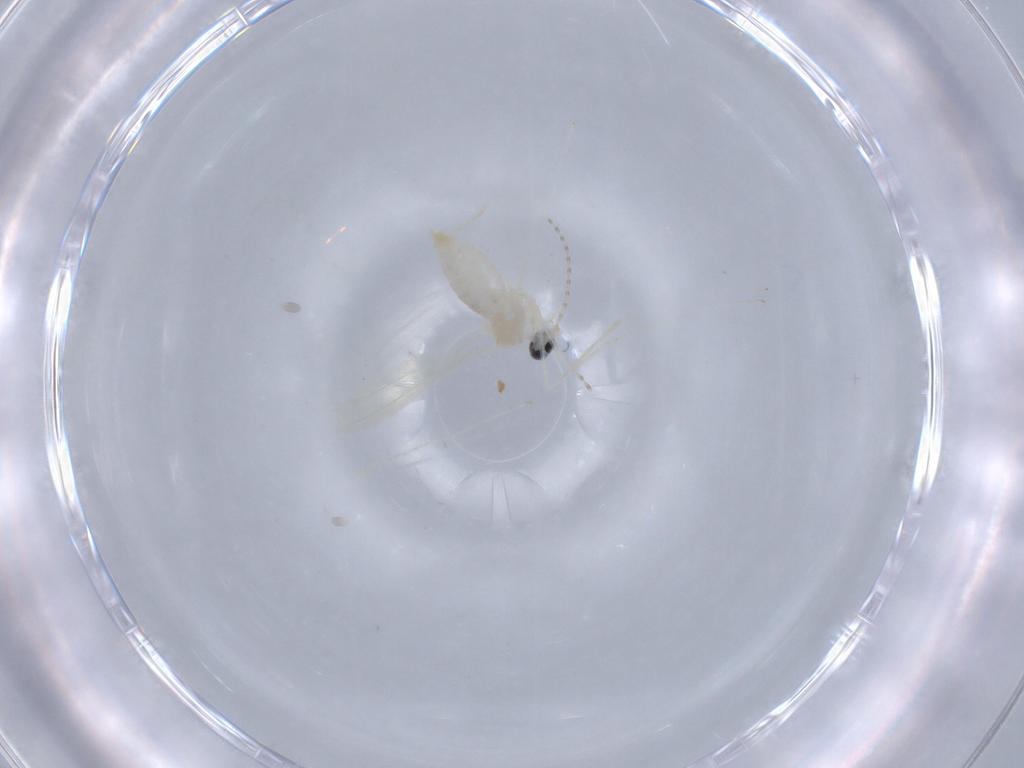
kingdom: Animalia
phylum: Arthropoda
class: Insecta
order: Diptera
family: Cecidomyiidae
